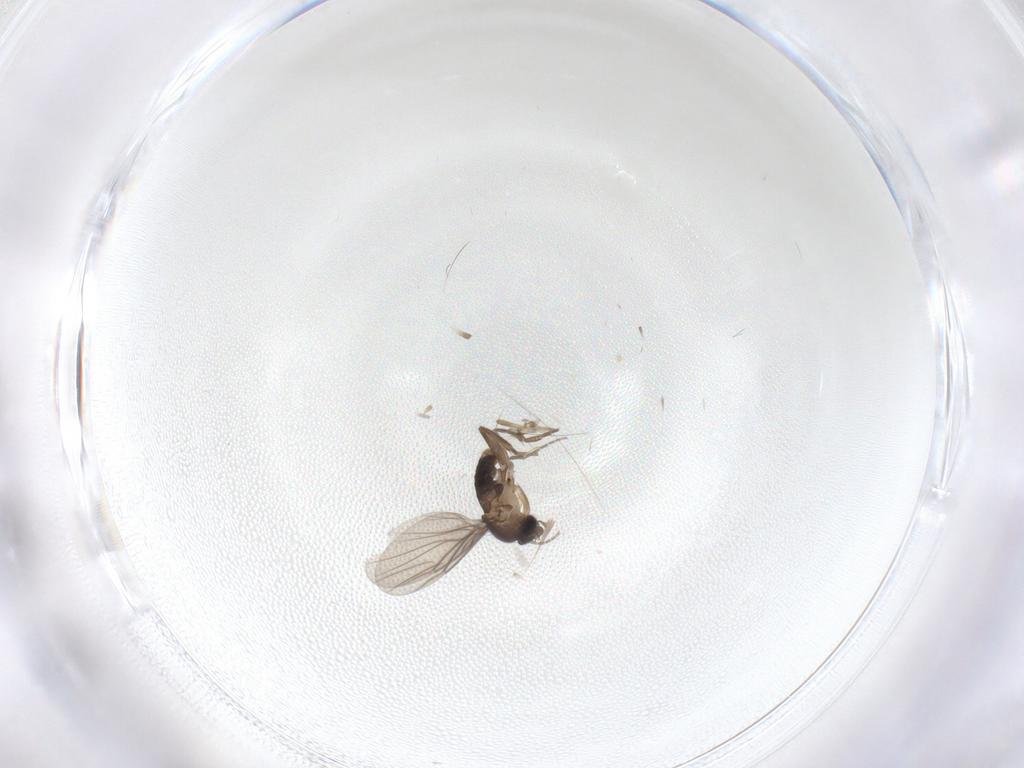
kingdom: Animalia
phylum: Arthropoda
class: Insecta
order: Diptera
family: Phoridae
